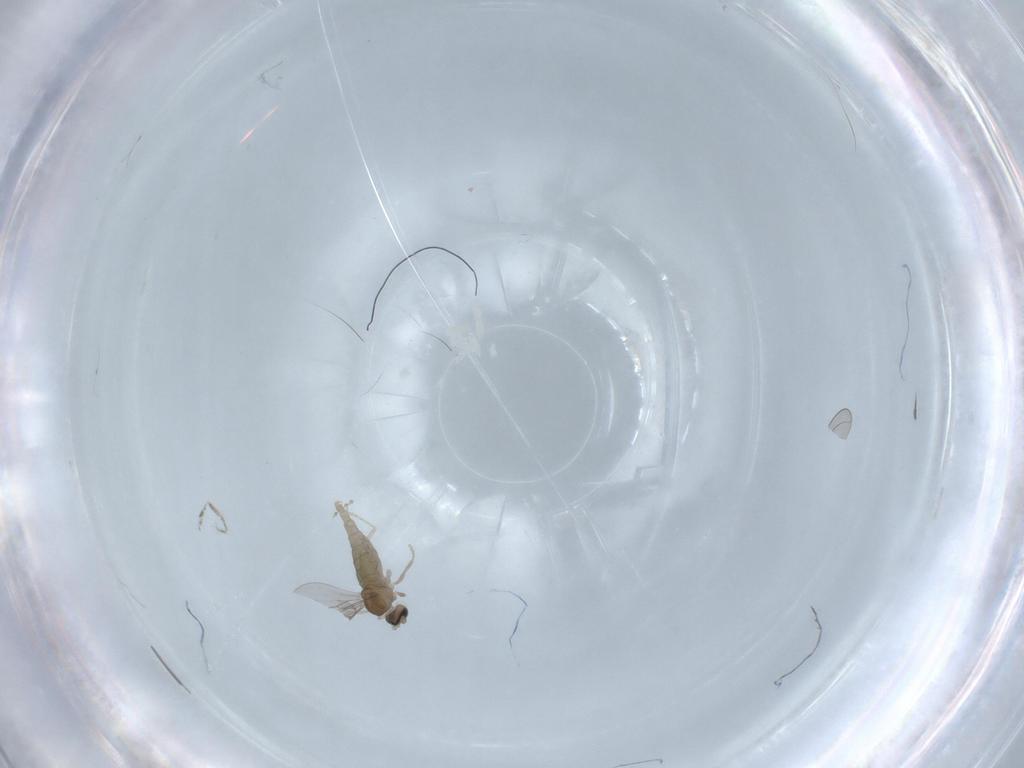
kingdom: Animalia
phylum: Arthropoda
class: Insecta
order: Diptera
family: Cecidomyiidae
